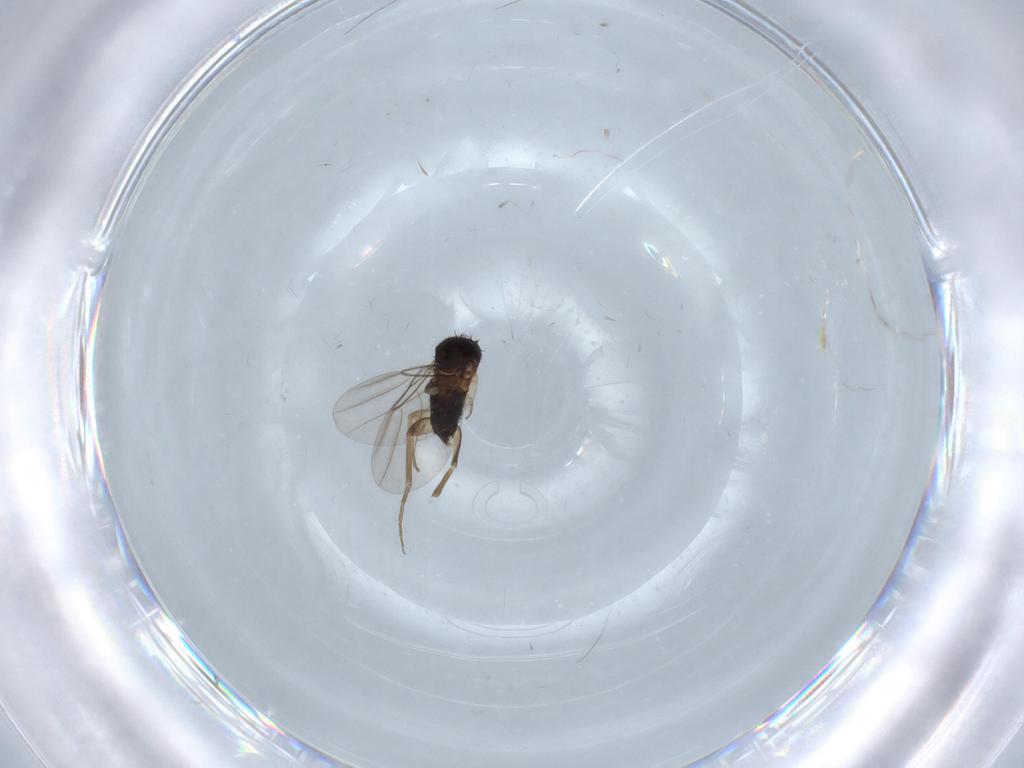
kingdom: Animalia
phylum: Arthropoda
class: Insecta
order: Diptera
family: Phoridae
